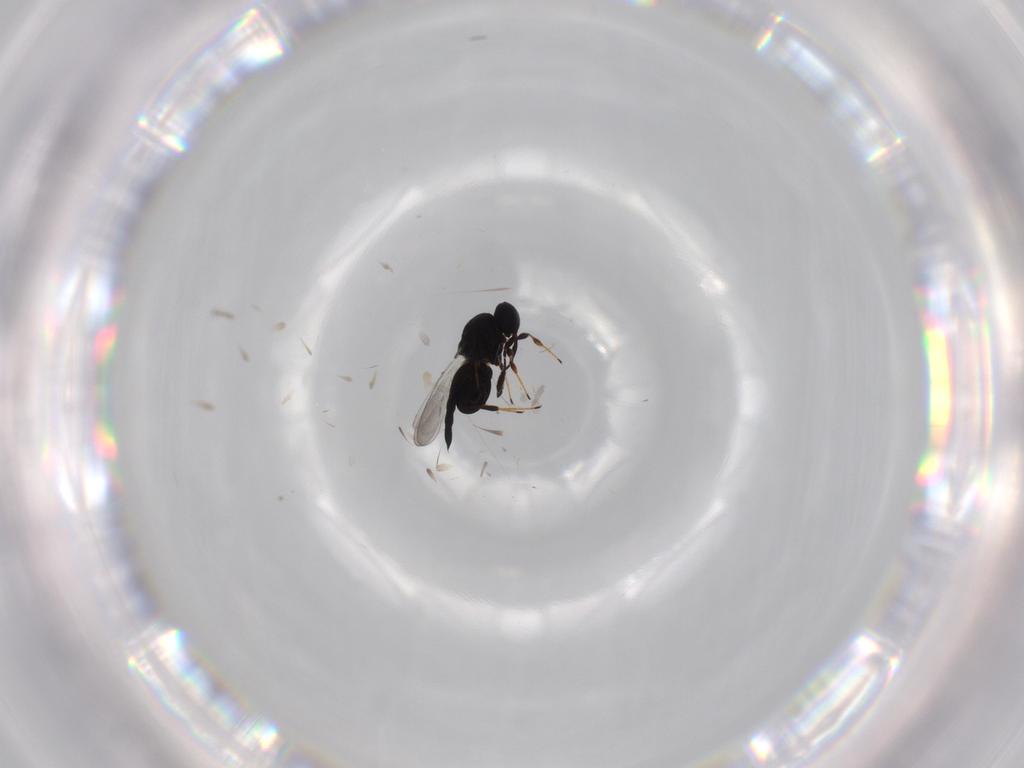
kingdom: Animalia
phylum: Arthropoda
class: Insecta
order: Hymenoptera
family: Platygastridae
